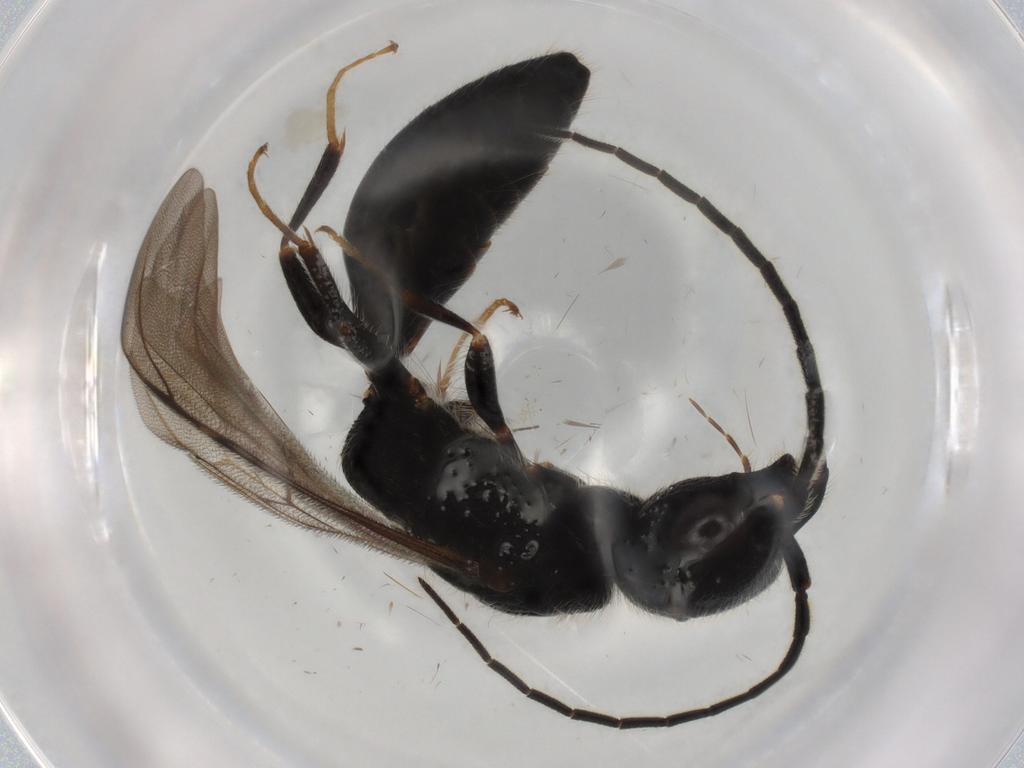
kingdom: Animalia
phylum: Arthropoda
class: Insecta
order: Hymenoptera
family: Bethylidae
